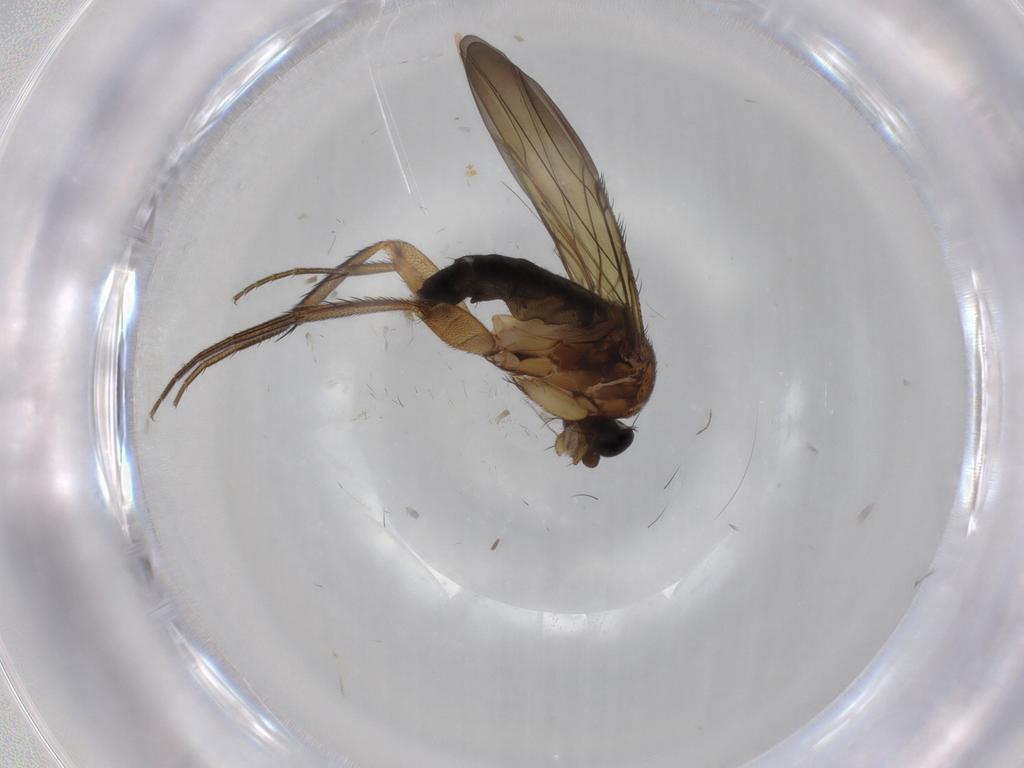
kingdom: Animalia
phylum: Arthropoda
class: Insecta
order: Diptera
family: Phoridae
